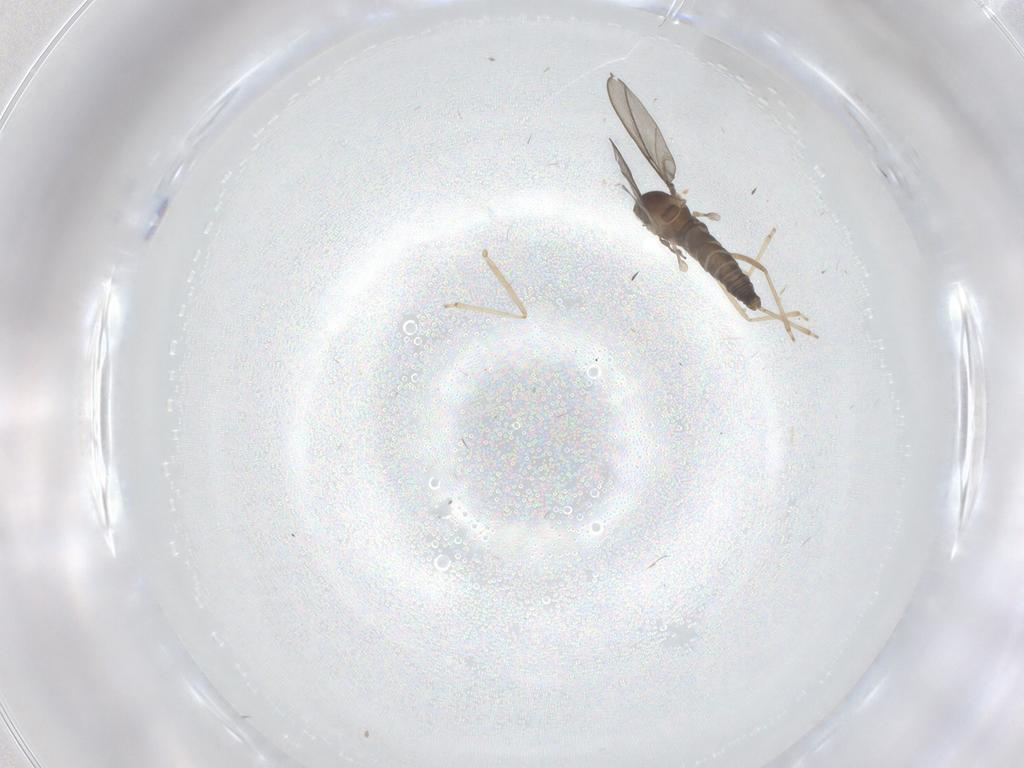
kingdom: Animalia
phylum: Arthropoda
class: Insecta
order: Diptera
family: Cecidomyiidae
